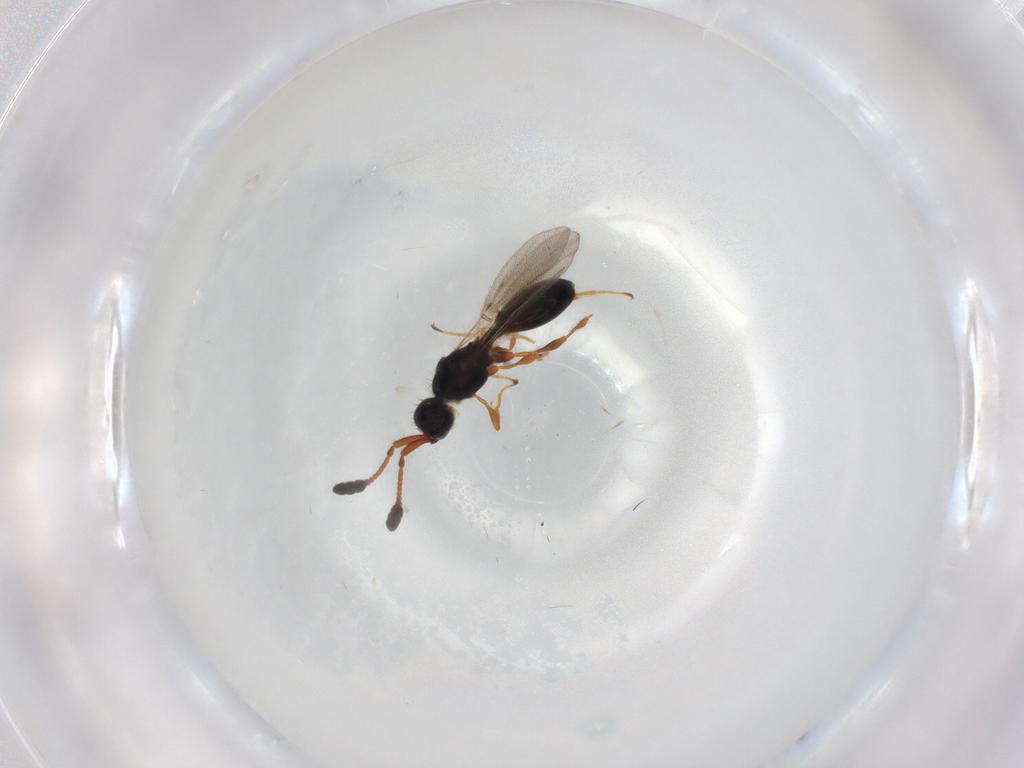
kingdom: Animalia
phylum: Arthropoda
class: Insecta
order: Hymenoptera
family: Diapriidae
